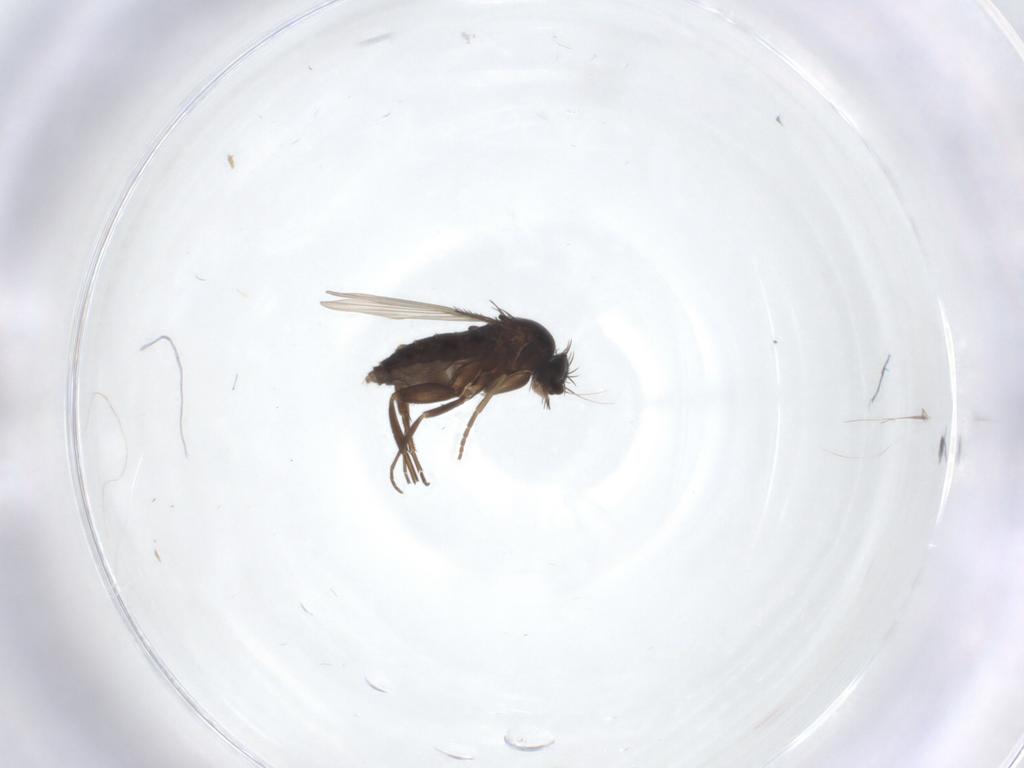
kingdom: Animalia
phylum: Arthropoda
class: Insecta
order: Diptera
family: Phoridae
